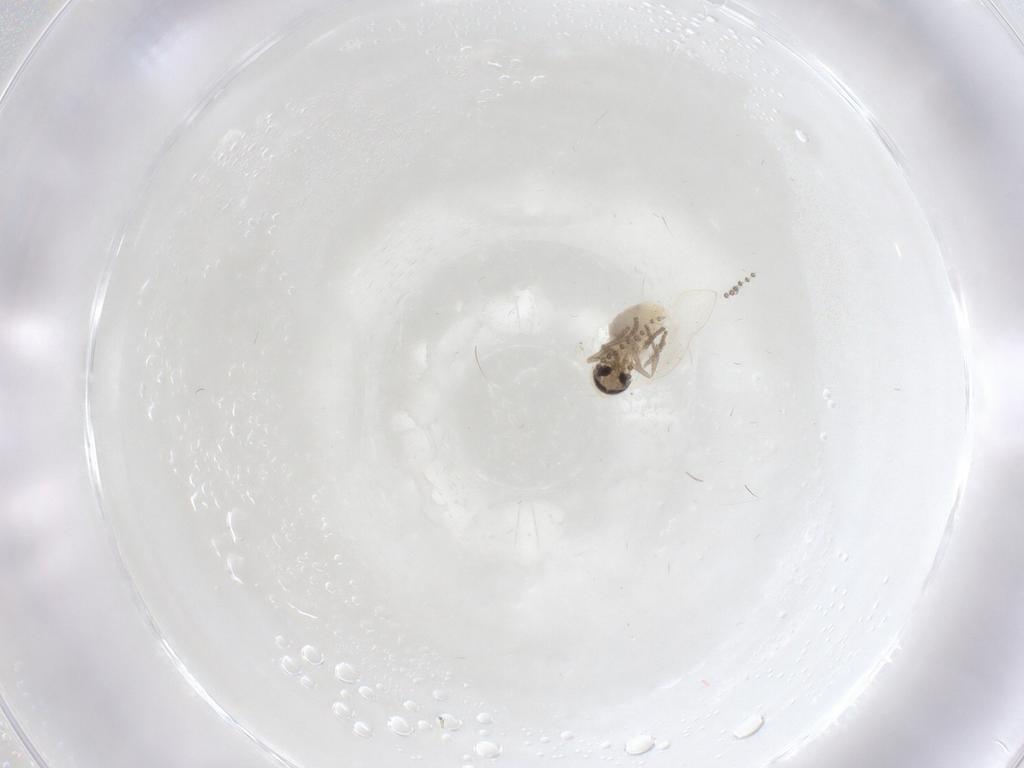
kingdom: Animalia
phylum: Arthropoda
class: Insecta
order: Diptera
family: Psychodidae
